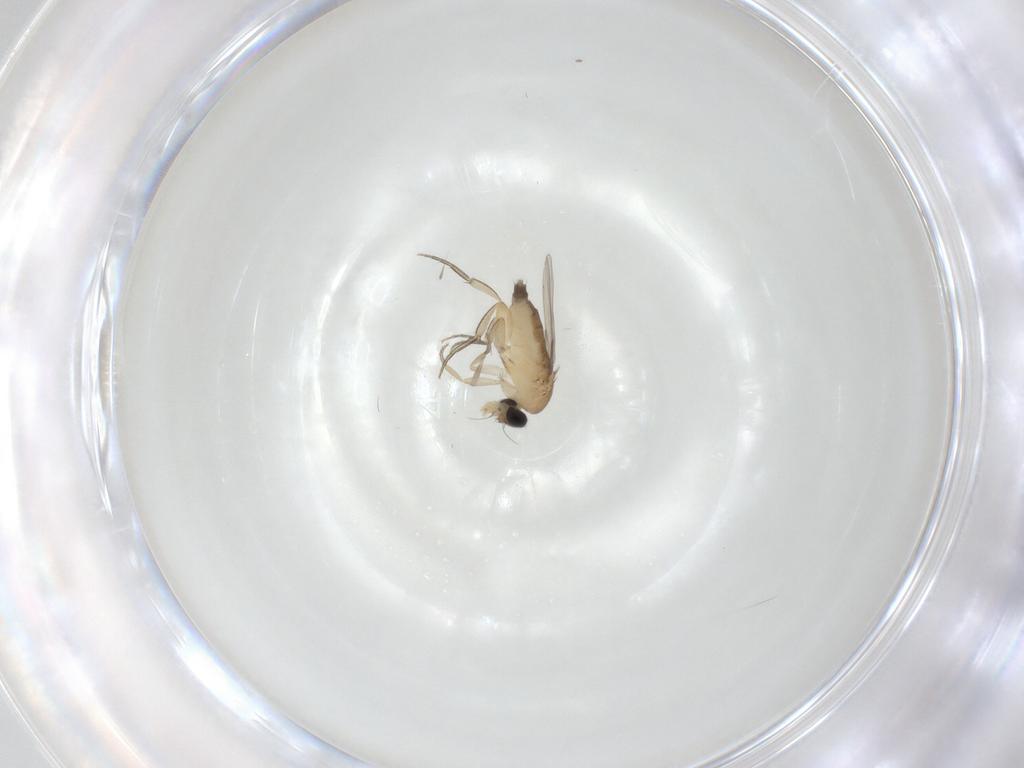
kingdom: Animalia
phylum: Arthropoda
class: Insecta
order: Diptera
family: Phoridae
